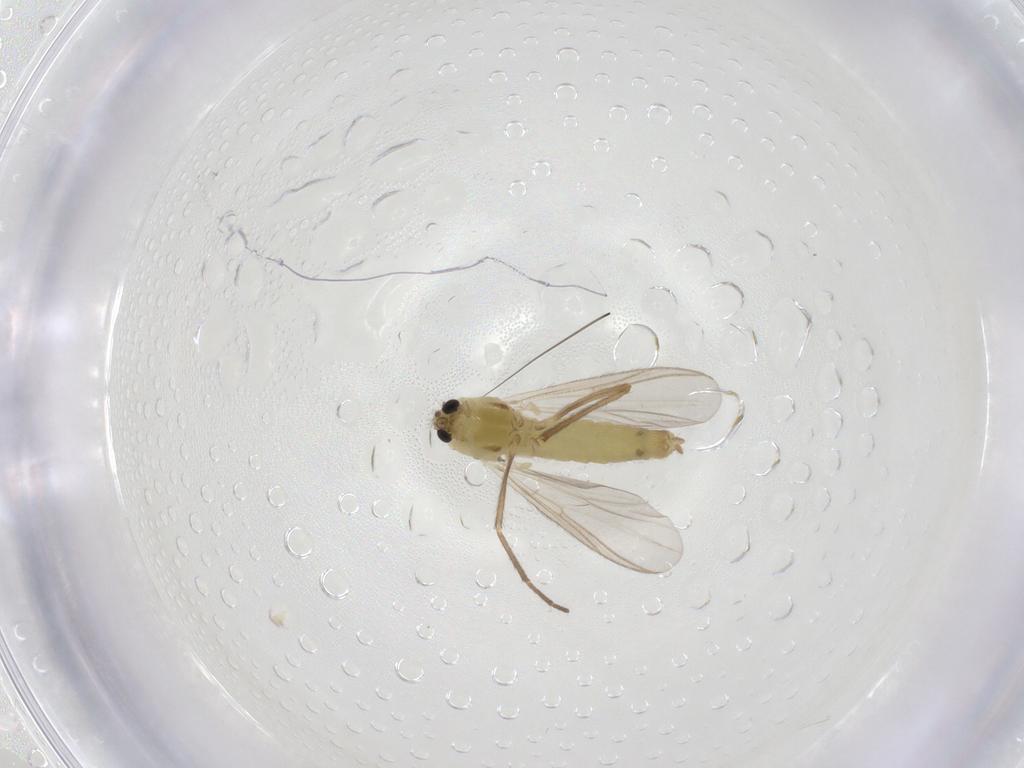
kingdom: Animalia
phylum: Arthropoda
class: Insecta
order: Diptera
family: Chironomidae
